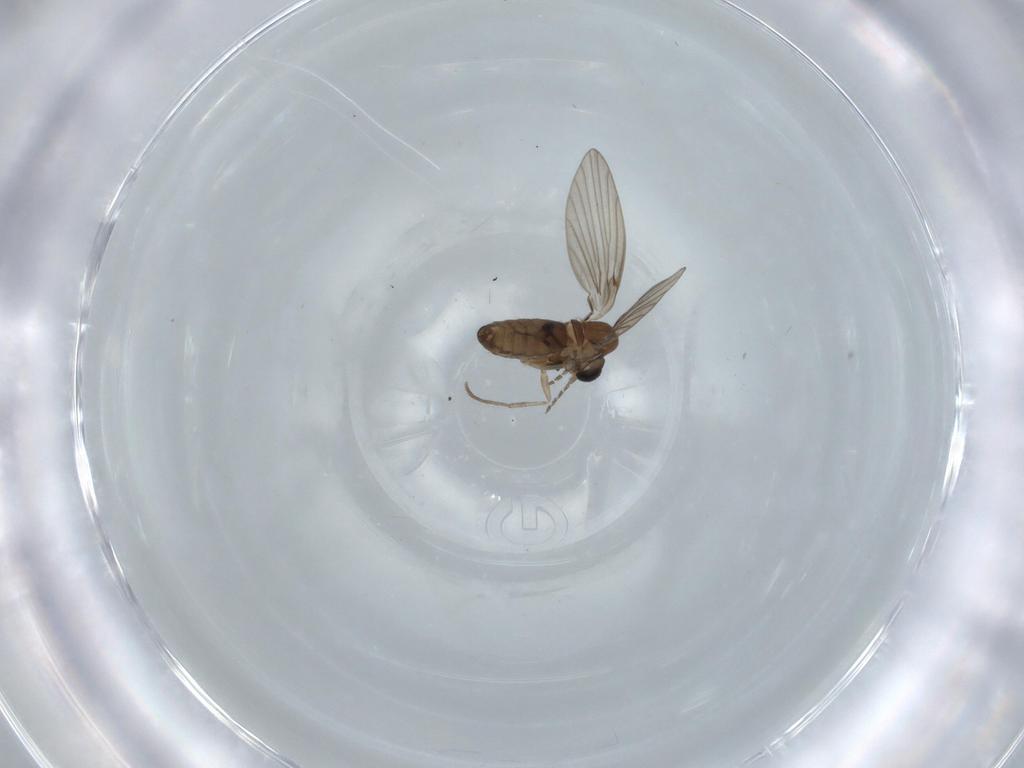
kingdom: Animalia
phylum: Arthropoda
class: Insecta
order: Diptera
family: Psychodidae
